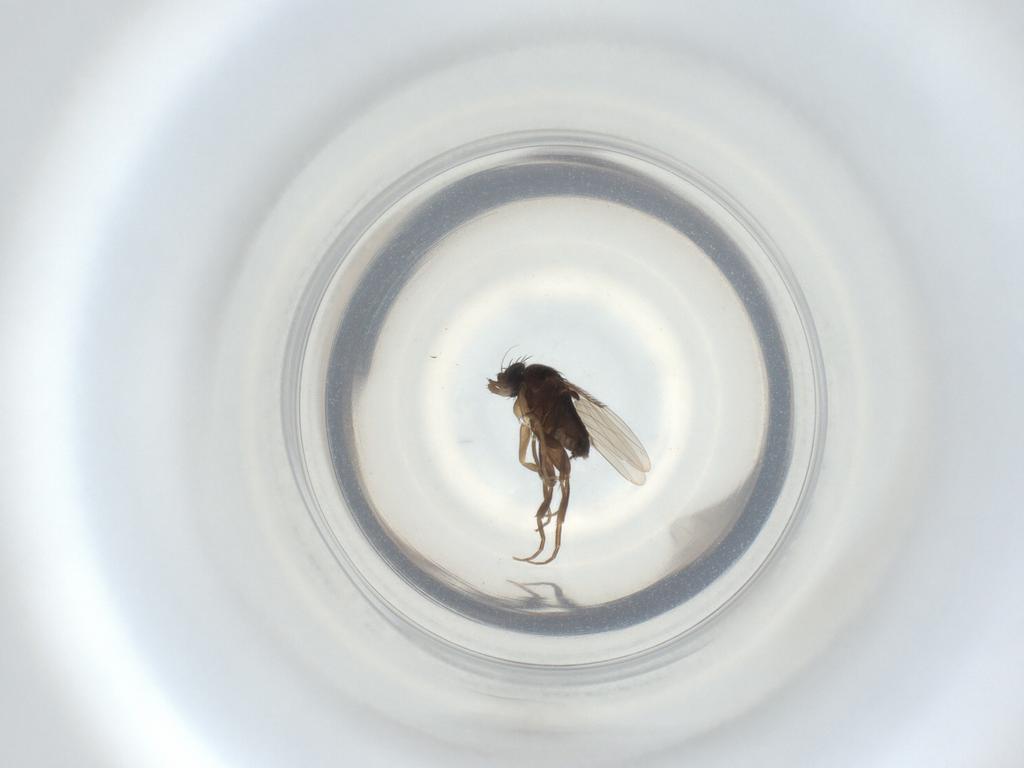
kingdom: Animalia
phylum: Arthropoda
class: Insecta
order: Diptera
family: Phoridae
